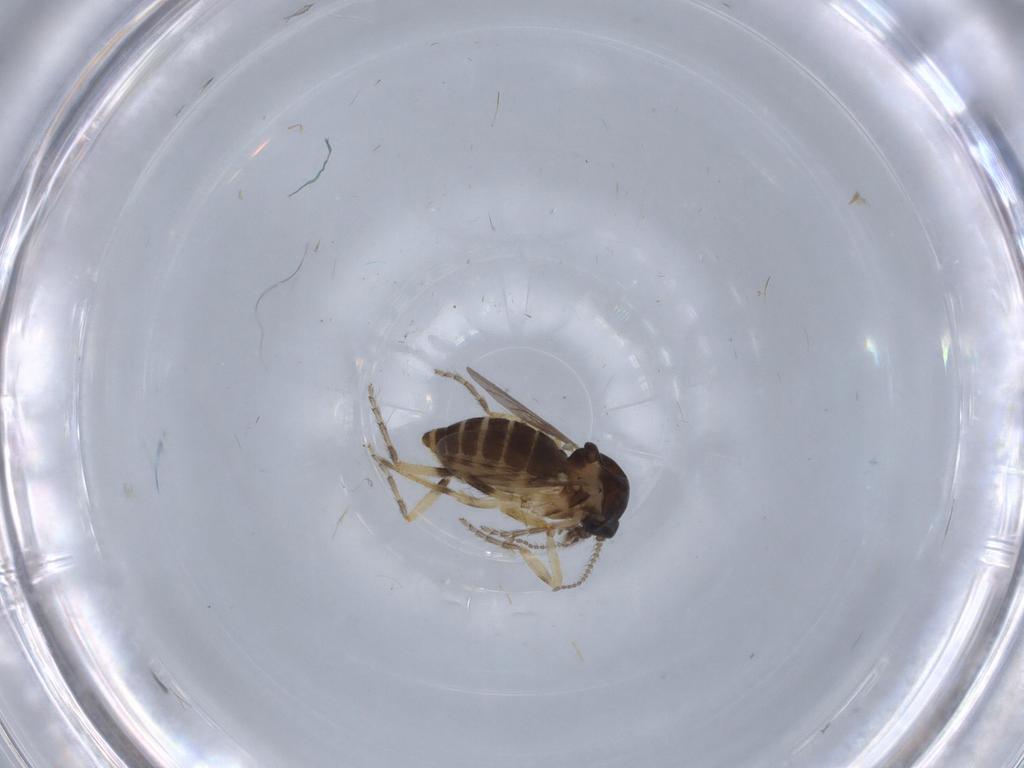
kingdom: Animalia
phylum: Arthropoda
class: Insecta
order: Diptera
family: Ceratopogonidae
